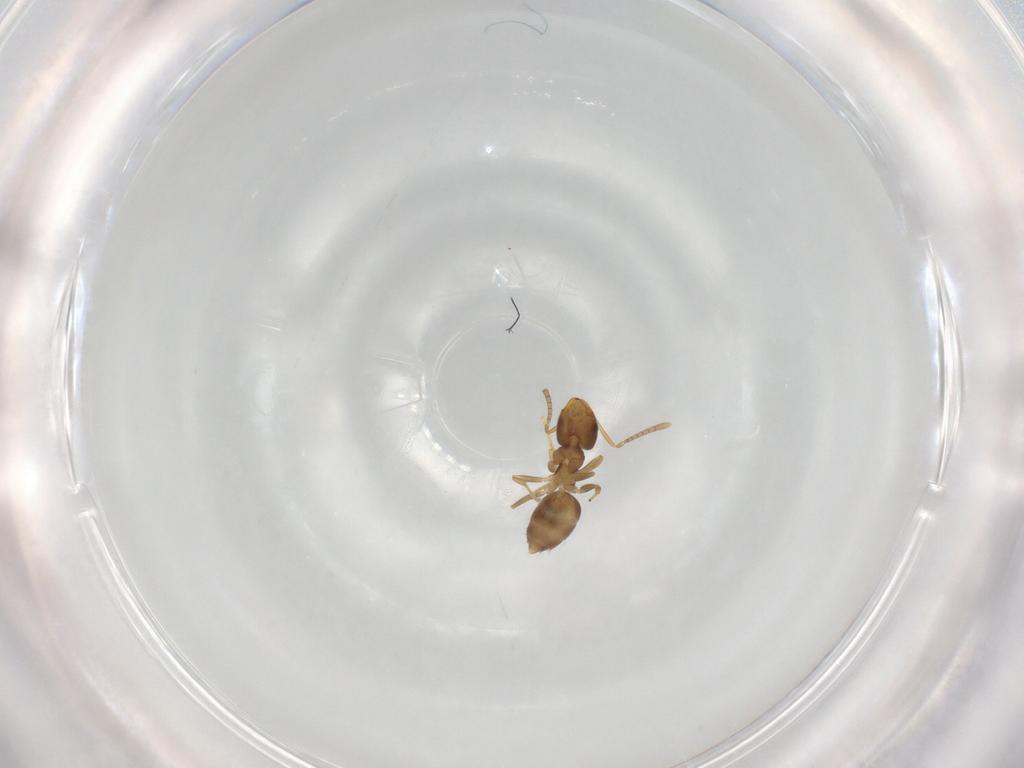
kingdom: Animalia
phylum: Arthropoda
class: Insecta
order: Hymenoptera
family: Formicidae
